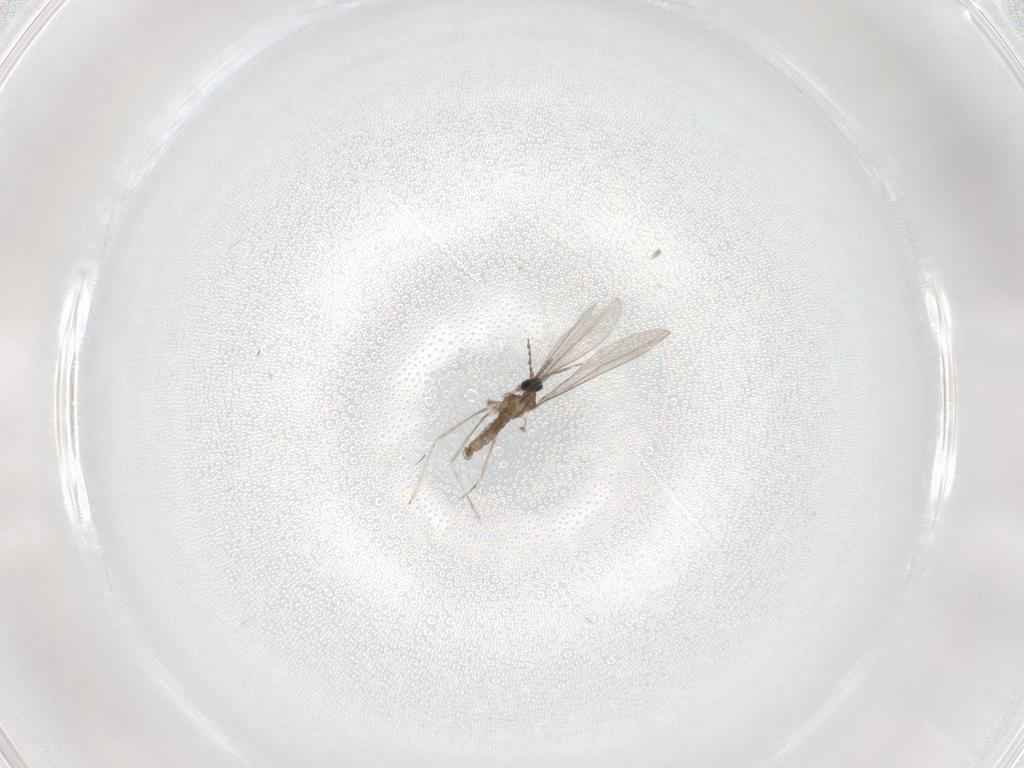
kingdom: Animalia
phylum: Arthropoda
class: Insecta
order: Diptera
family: Cecidomyiidae
